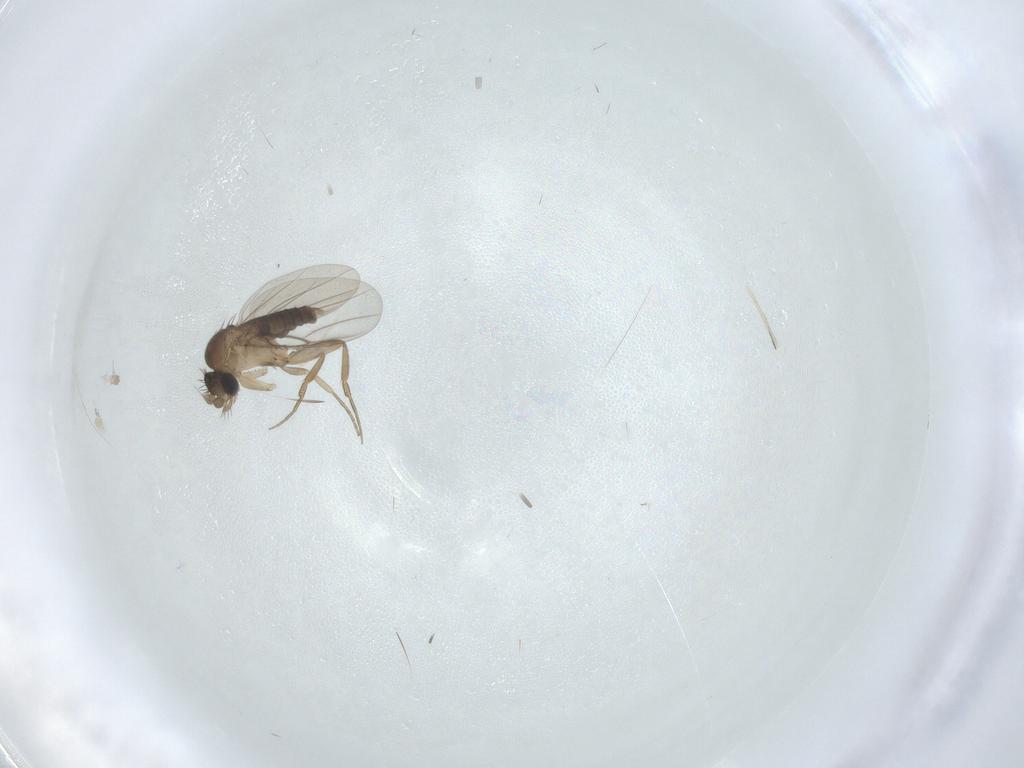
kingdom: Animalia
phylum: Arthropoda
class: Insecta
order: Diptera
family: Phoridae
